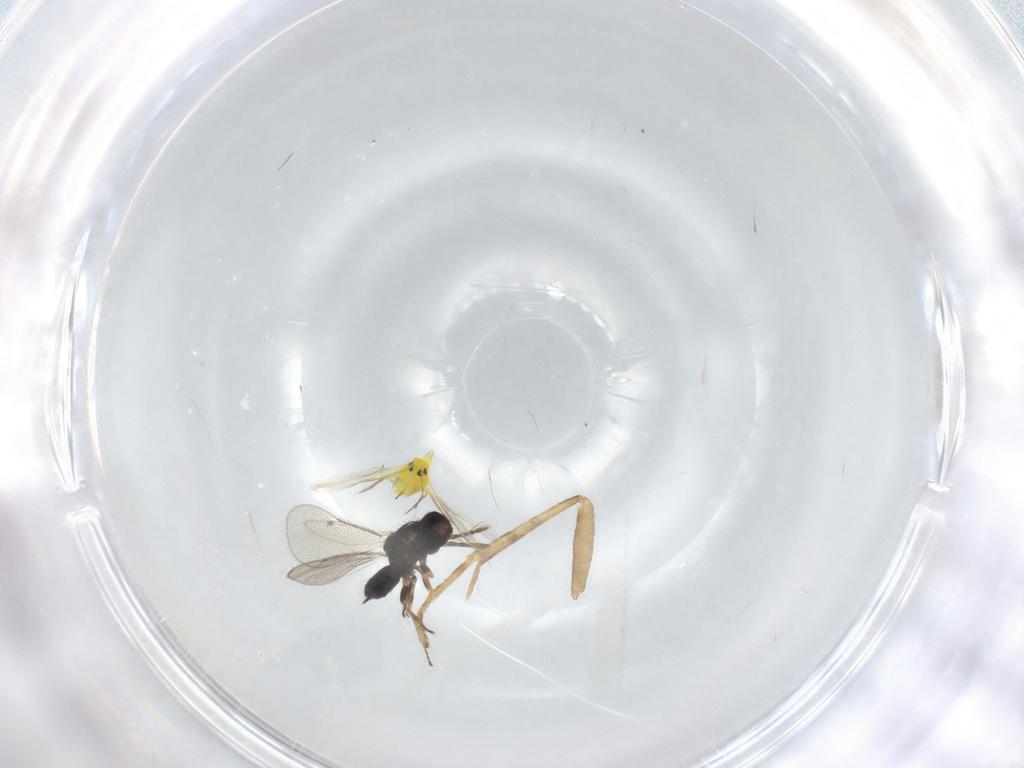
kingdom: Animalia
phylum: Arthropoda
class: Insecta
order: Hymenoptera
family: Eulophidae
